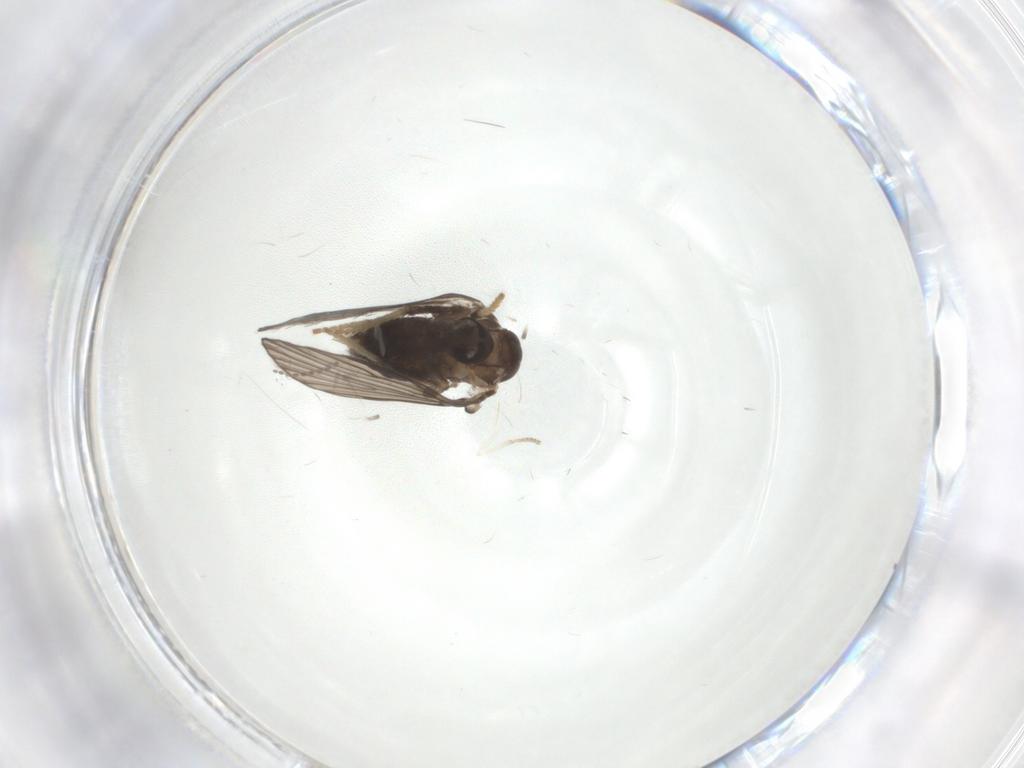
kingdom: Animalia
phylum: Arthropoda
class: Insecta
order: Diptera
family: Psychodidae
